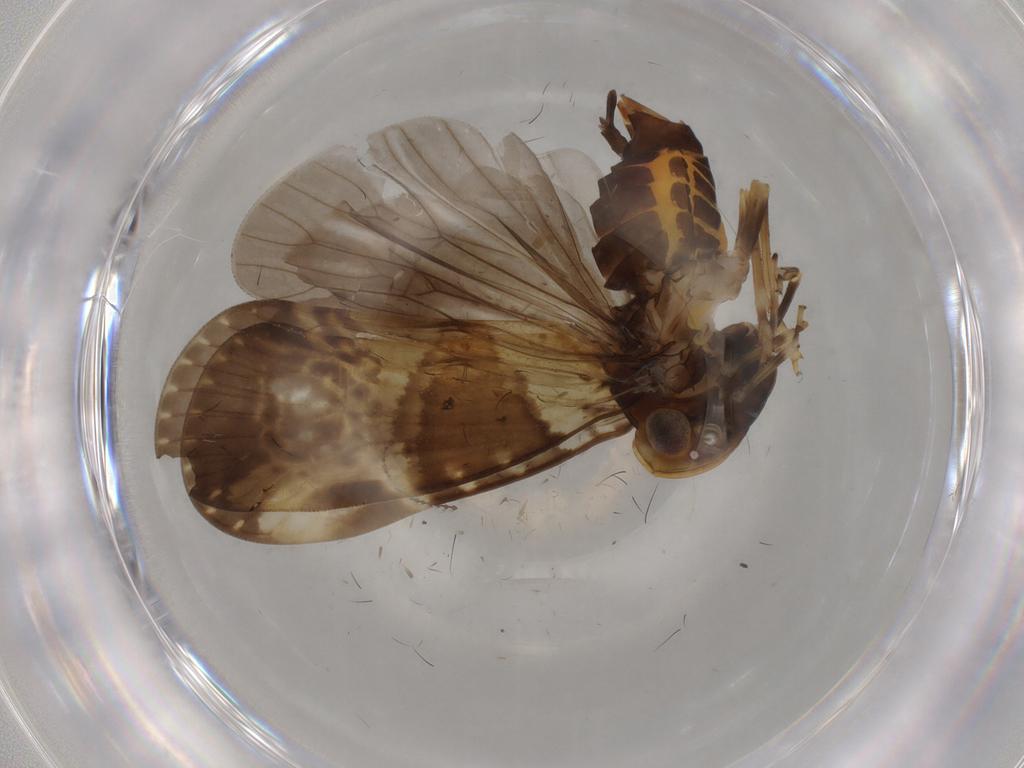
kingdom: Animalia
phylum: Arthropoda
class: Insecta
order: Hemiptera
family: Cixiidae
